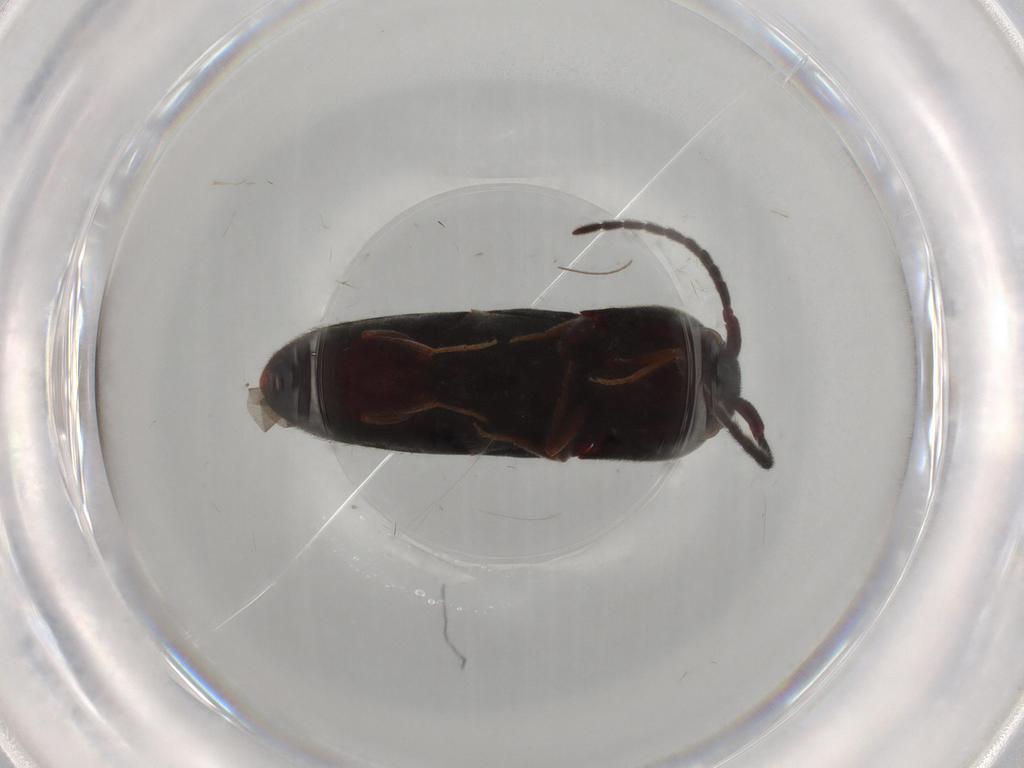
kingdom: Animalia
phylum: Arthropoda
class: Insecta
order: Coleoptera
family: Eucnemidae
